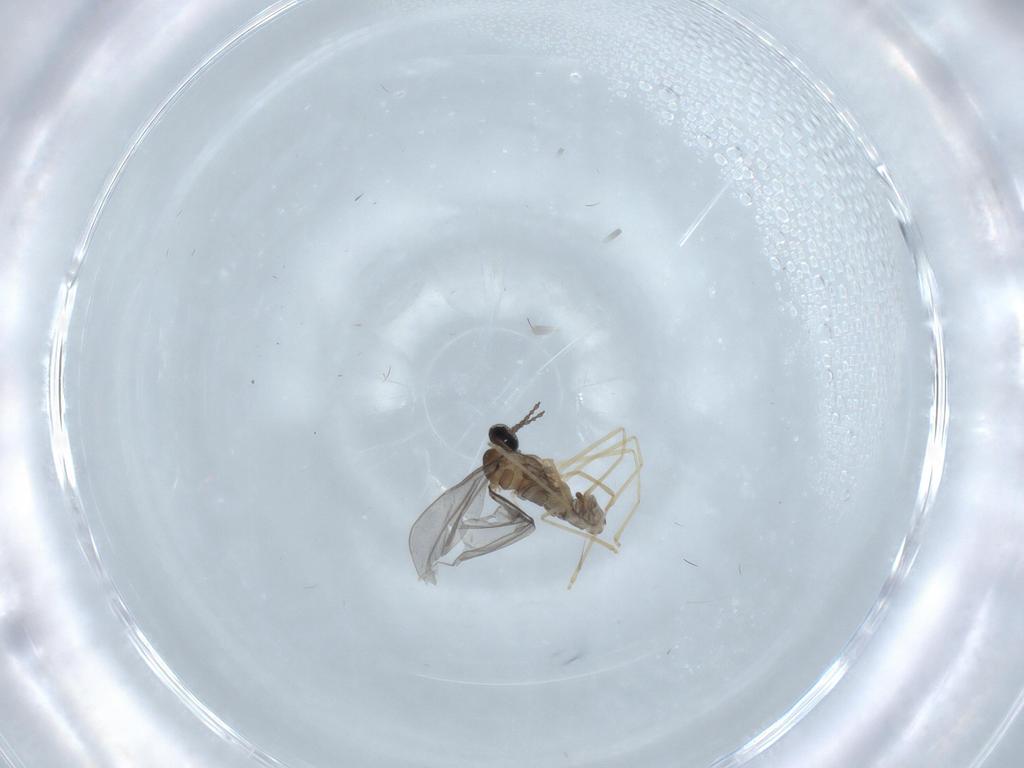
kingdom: Animalia
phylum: Arthropoda
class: Insecta
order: Diptera
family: Cecidomyiidae
